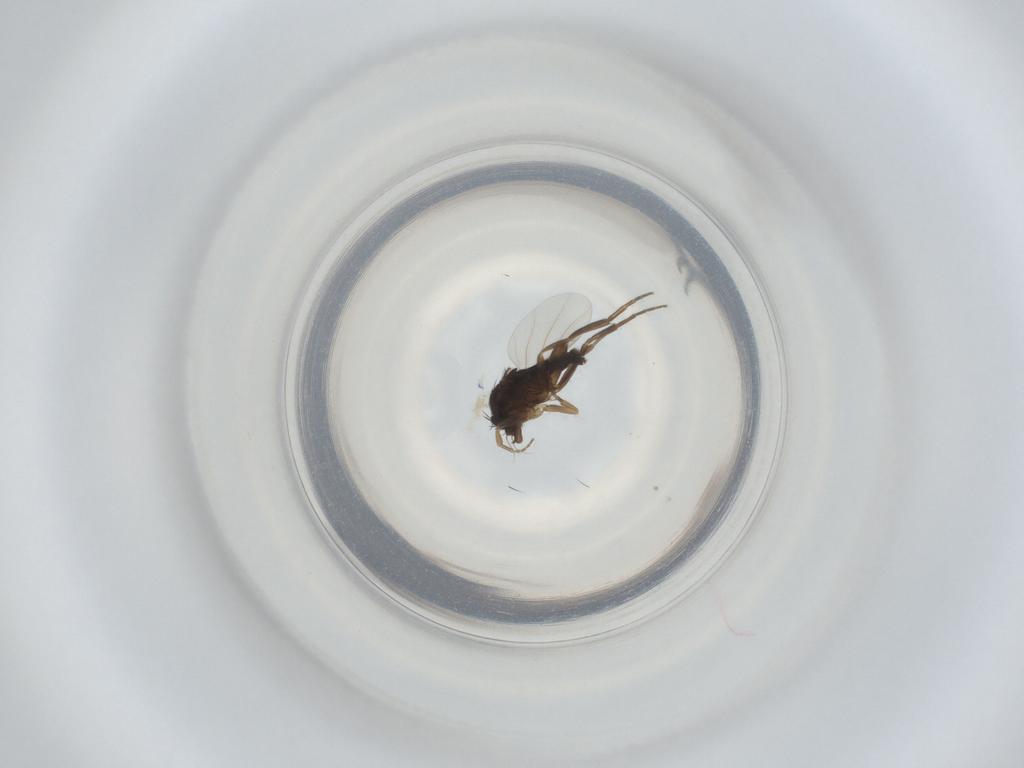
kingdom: Animalia
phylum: Arthropoda
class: Insecta
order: Diptera
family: Phoridae
